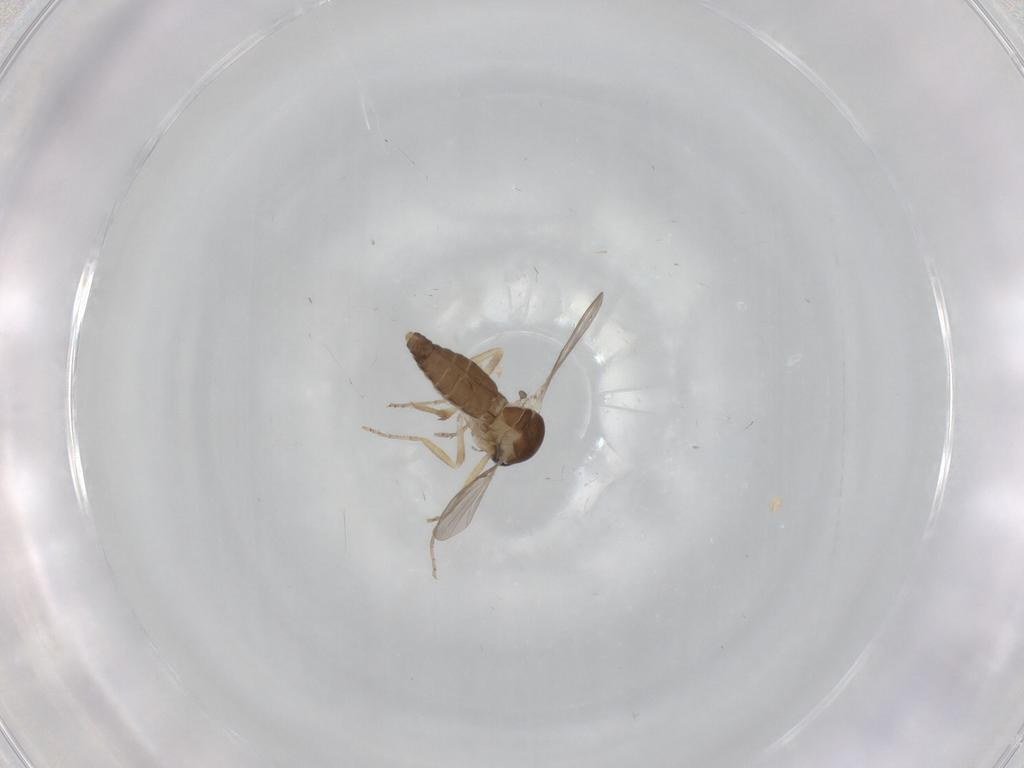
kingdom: Animalia
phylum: Arthropoda
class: Insecta
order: Diptera
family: Ceratopogonidae
